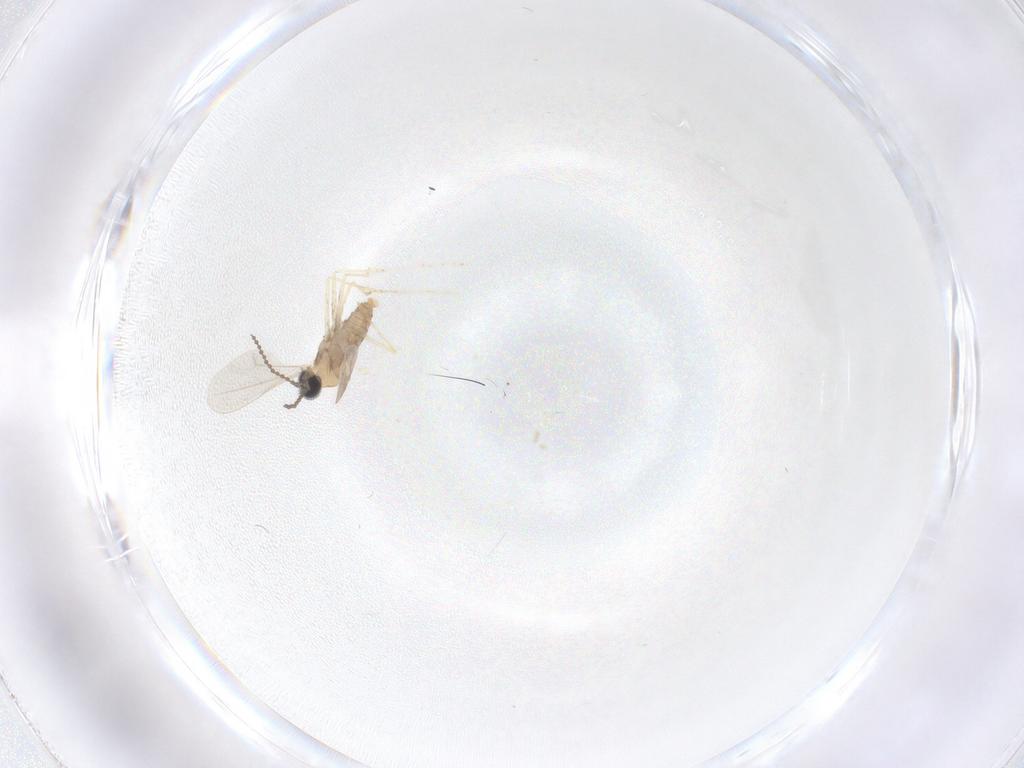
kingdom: Animalia
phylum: Arthropoda
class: Insecta
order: Diptera
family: Cecidomyiidae
